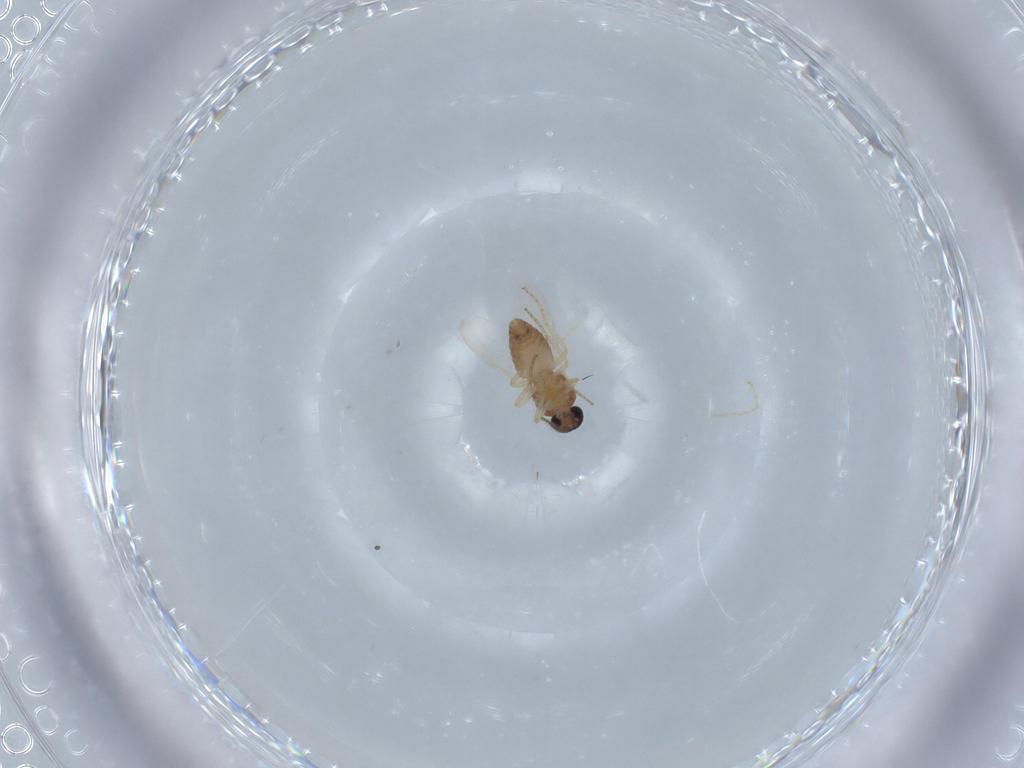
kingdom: Animalia
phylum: Arthropoda
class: Insecta
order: Diptera
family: Ceratopogonidae
